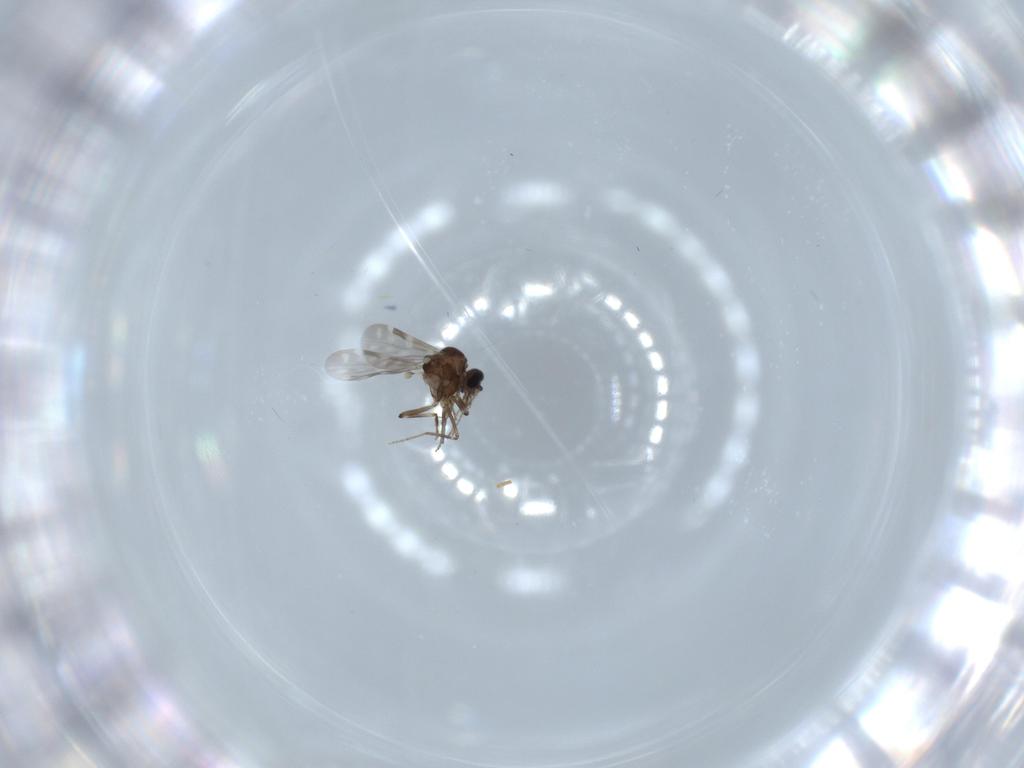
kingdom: Animalia
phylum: Arthropoda
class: Insecta
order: Diptera
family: Ceratopogonidae
